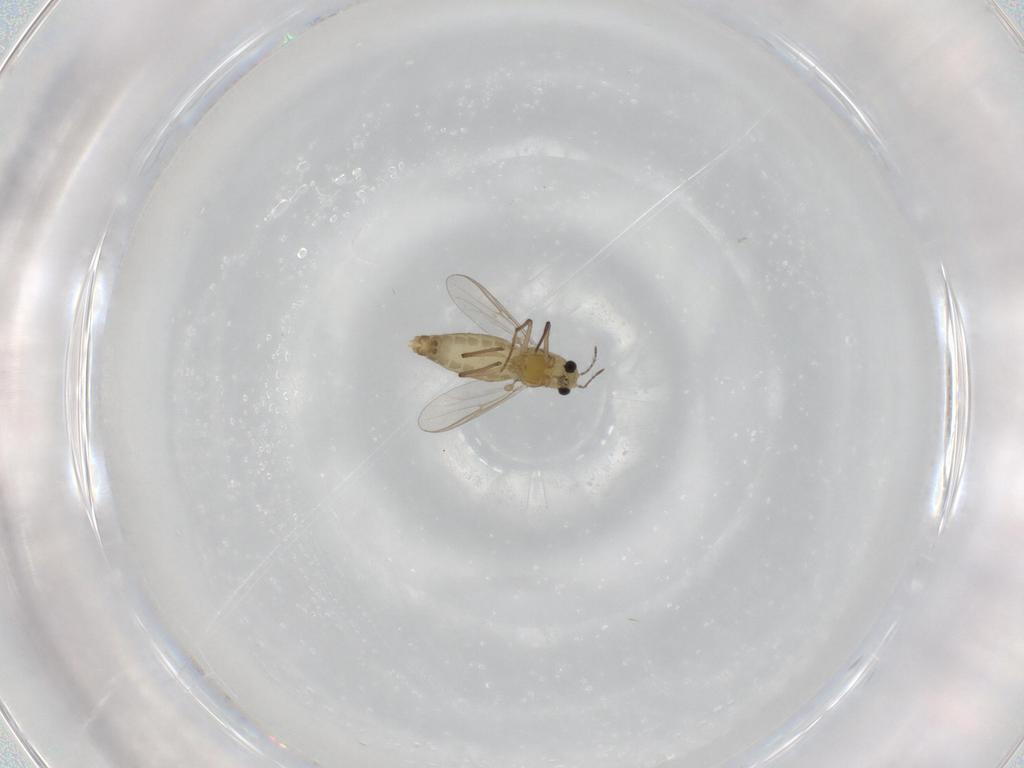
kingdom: Animalia
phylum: Arthropoda
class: Insecta
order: Diptera
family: Chironomidae
